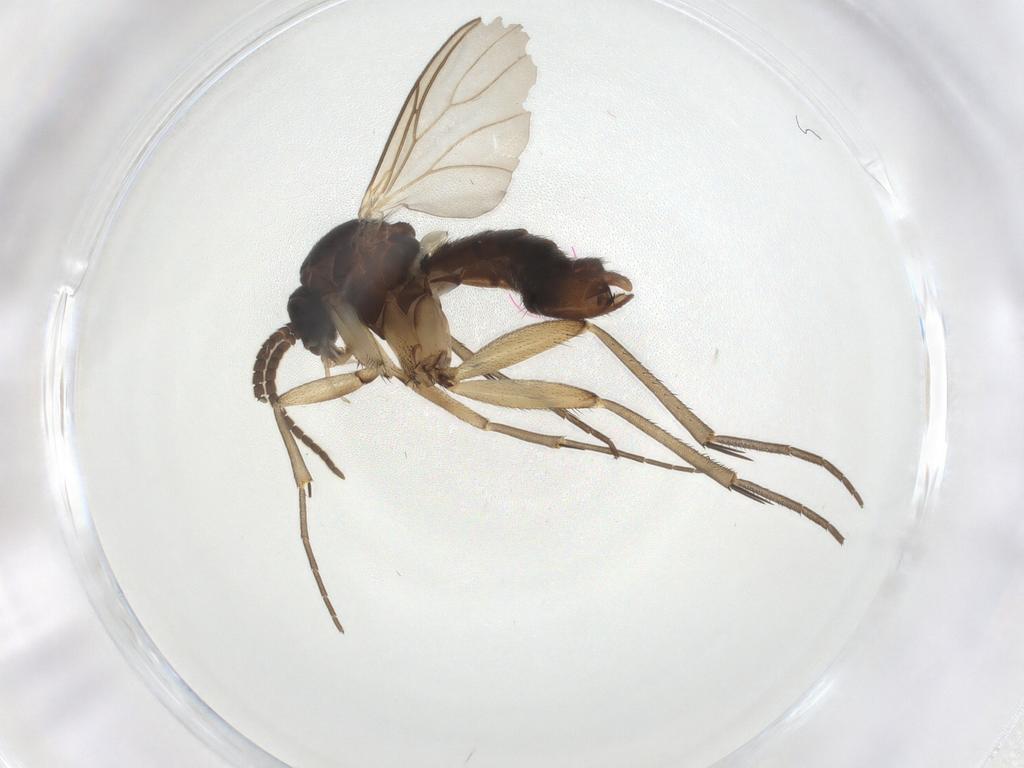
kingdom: Animalia
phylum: Arthropoda
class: Insecta
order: Diptera
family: Mycetophilidae
